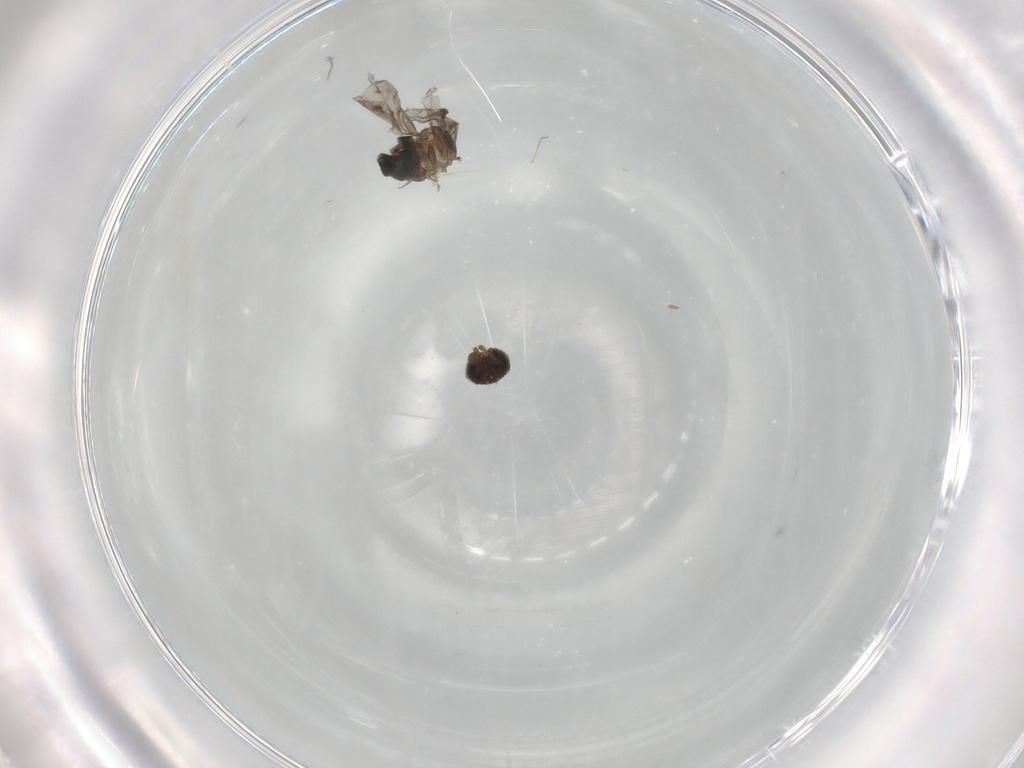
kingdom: Animalia
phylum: Arthropoda
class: Insecta
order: Diptera
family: Phoridae
